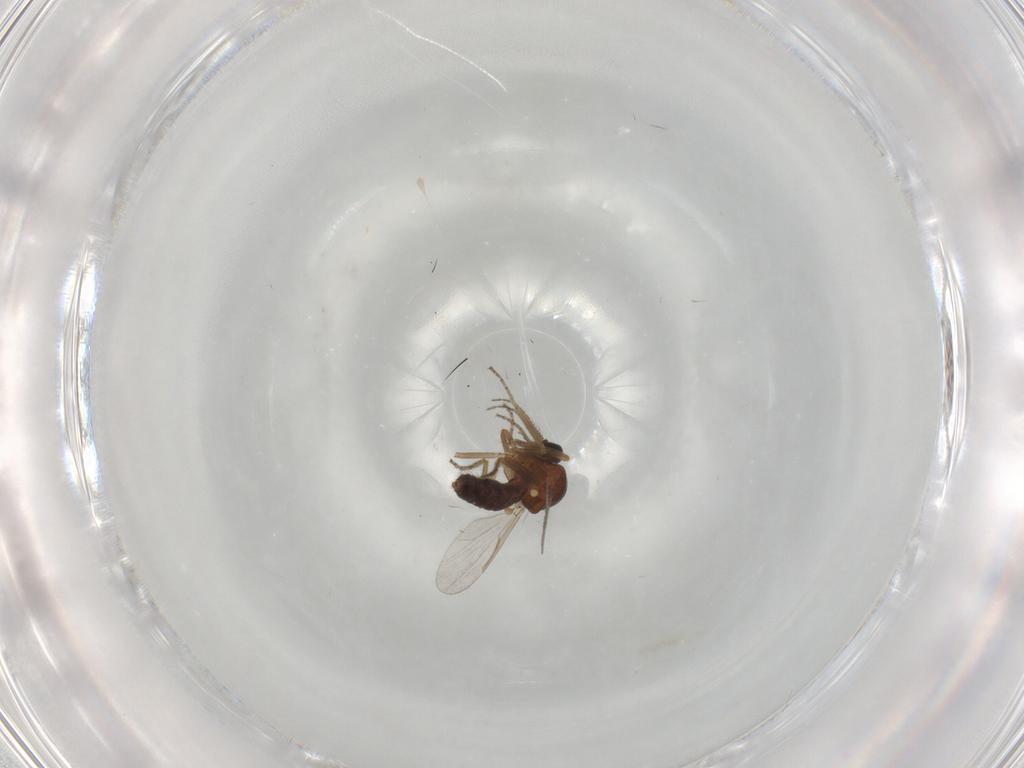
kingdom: Animalia
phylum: Arthropoda
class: Insecta
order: Diptera
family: Ceratopogonidae
